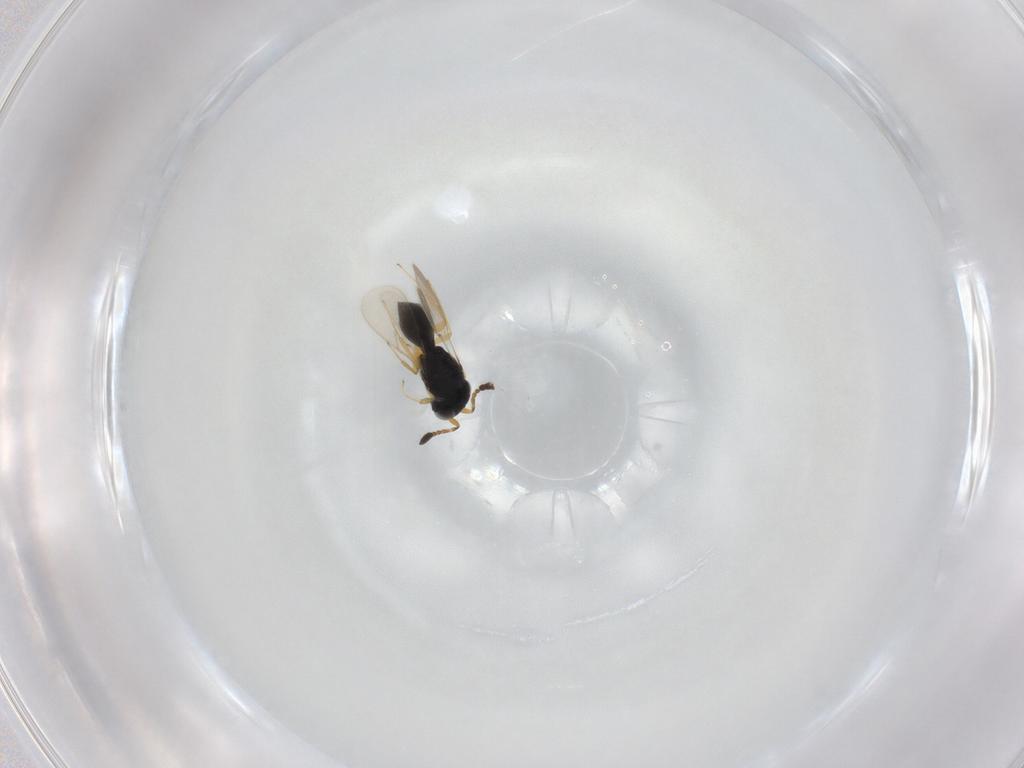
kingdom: Animalia
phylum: Arthropoda
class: Insecta
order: Hymenoptera
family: Scelionidae
